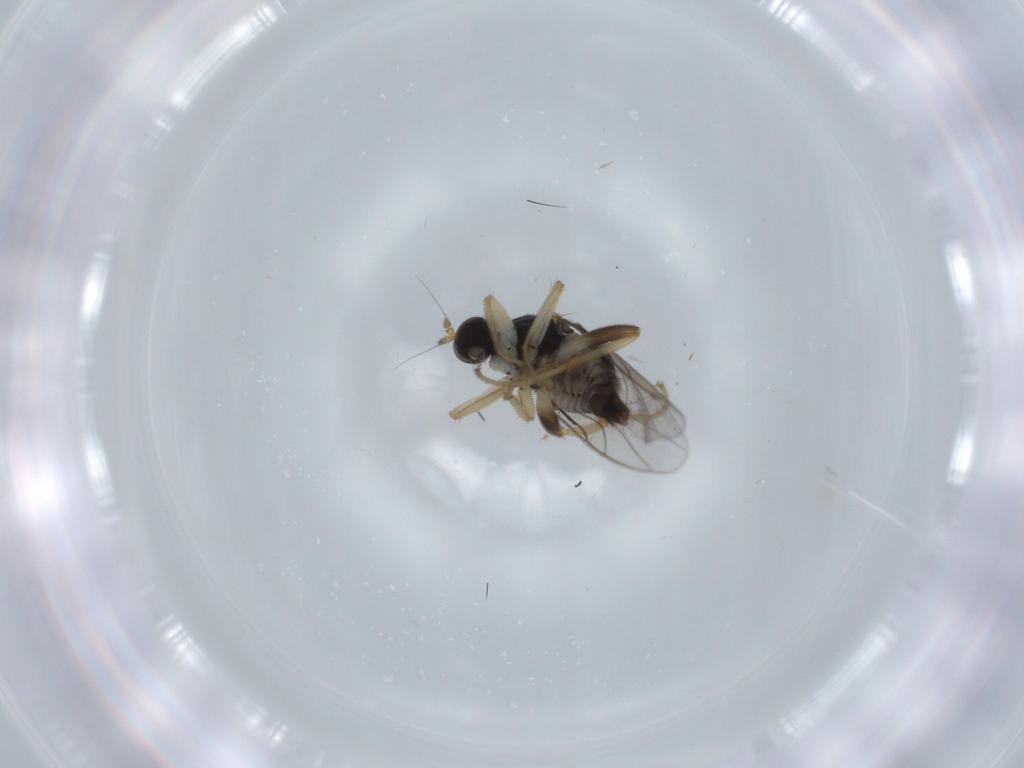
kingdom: Animalia
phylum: Arthropoda
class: Insecta
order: Diptera
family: Hybotidae
